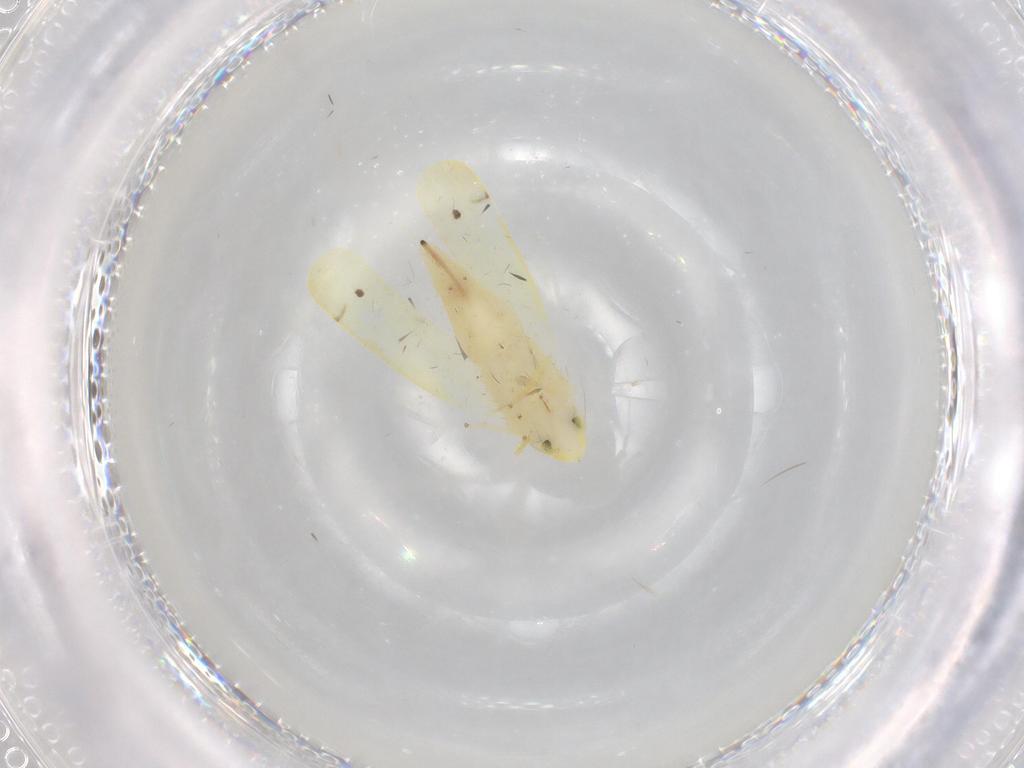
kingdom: Animalia
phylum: Arthropoda
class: Insecta
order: Hemiptera
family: Cicadellidae
